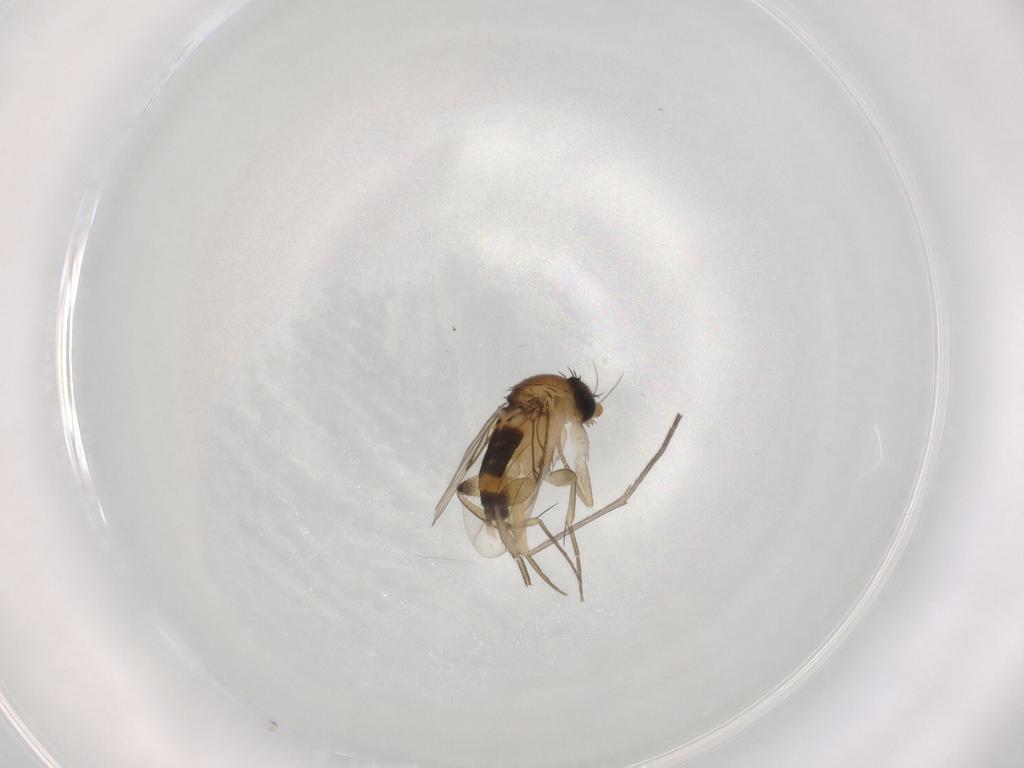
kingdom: Animalia
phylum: Arthropoda
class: Insecta
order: Diptera
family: Phoridae
